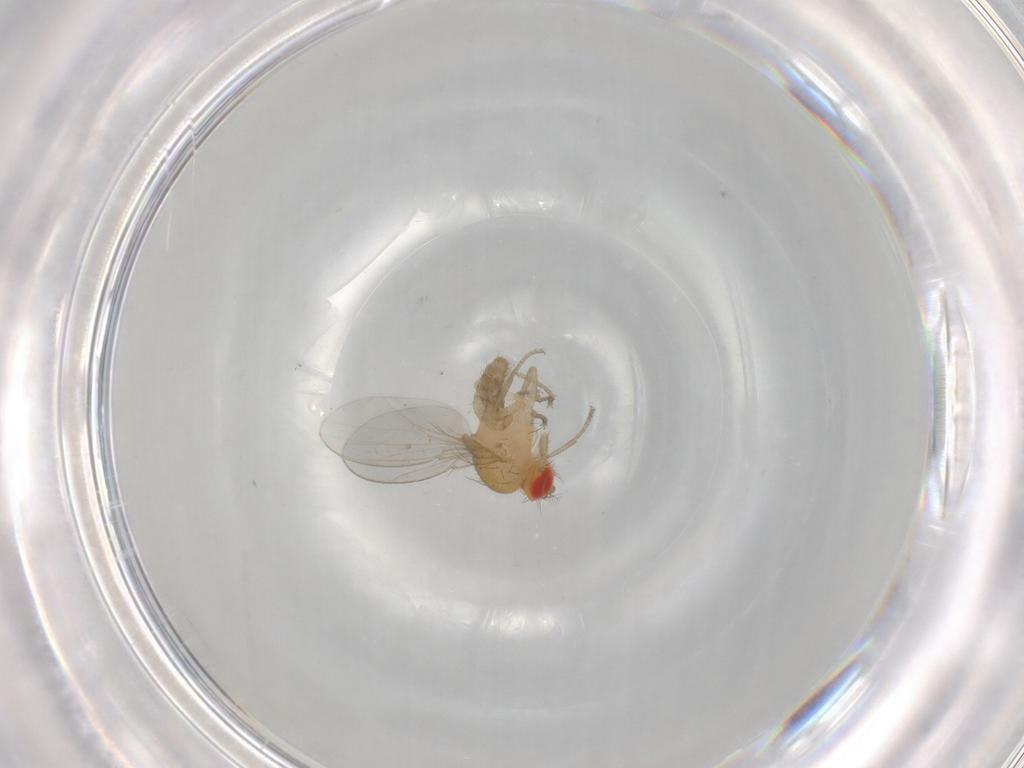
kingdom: Animalia
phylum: Arthropoda
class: Insecta
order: Diptera
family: Drosophilidae
